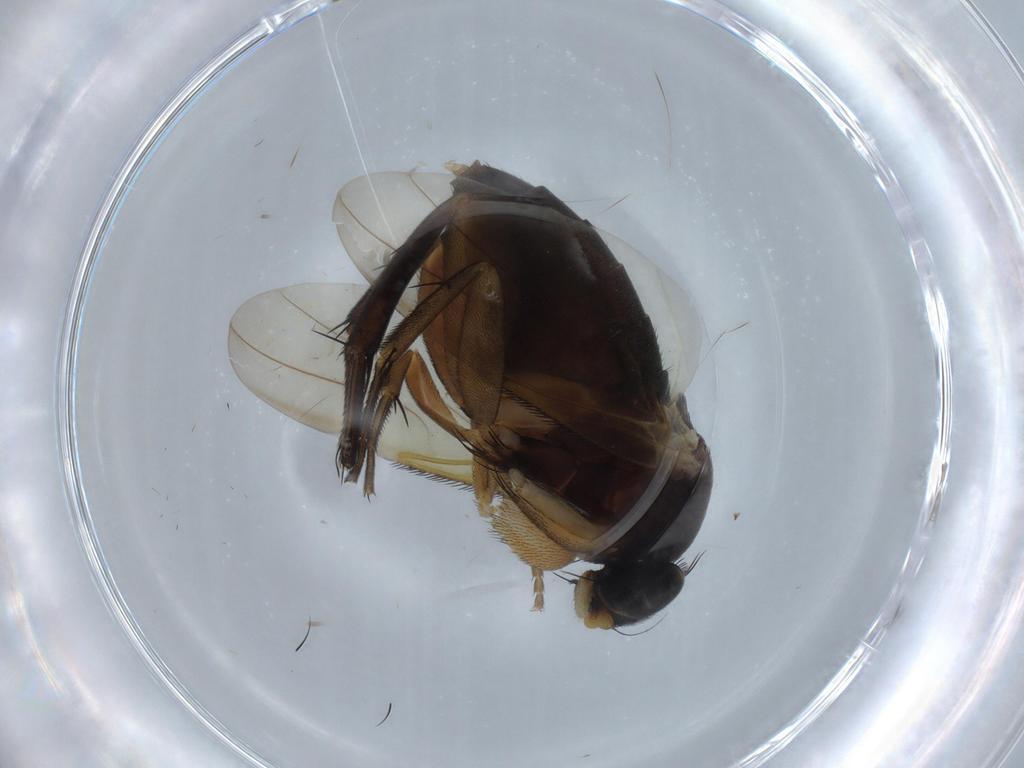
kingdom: Animalia
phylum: Arthropoda
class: Insecta
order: Diptera
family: Phoridae
